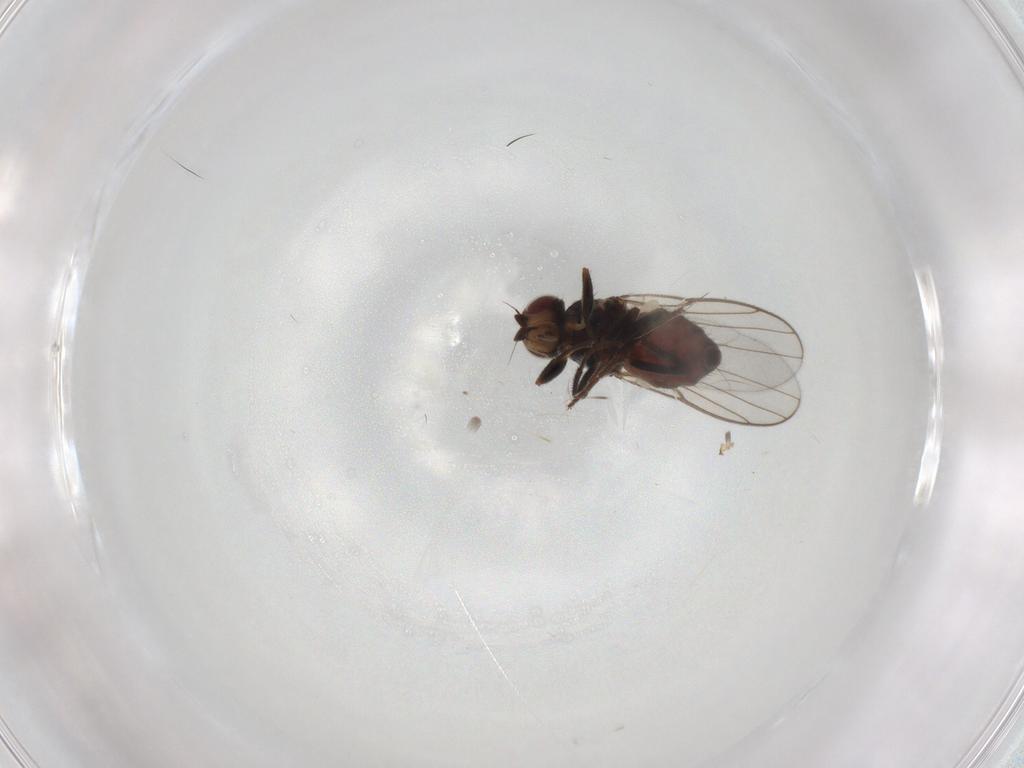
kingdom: Animalia
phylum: Arthropoda
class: Insecta
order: Diptera
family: Chloropidae
